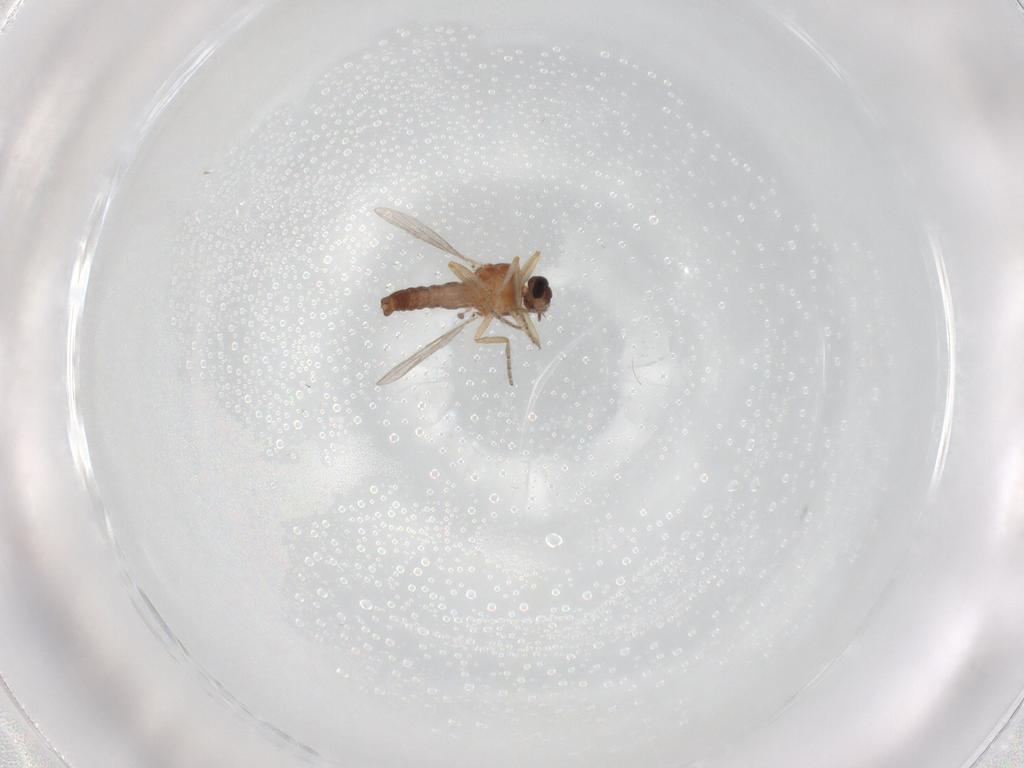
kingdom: Animalia
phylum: Arthropoda
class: Insecta
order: Diptera
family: Ceratopogonidae
